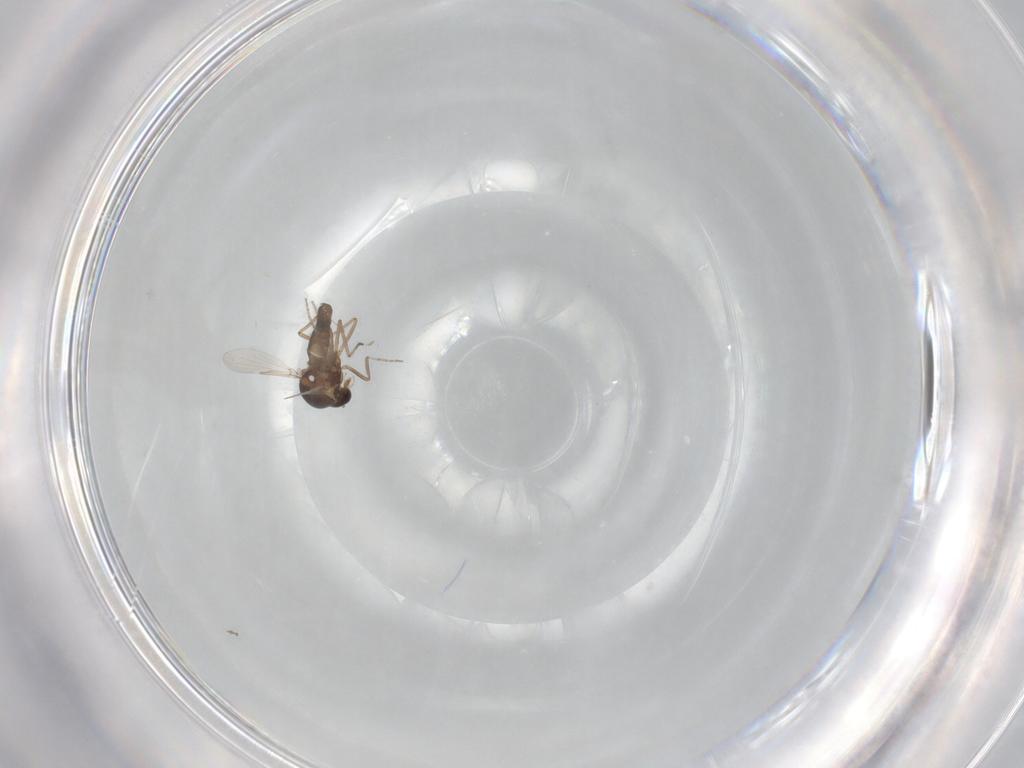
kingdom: Animalia
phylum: Arthropoda
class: Insecta
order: Diptera
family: Ceratopogonidae
